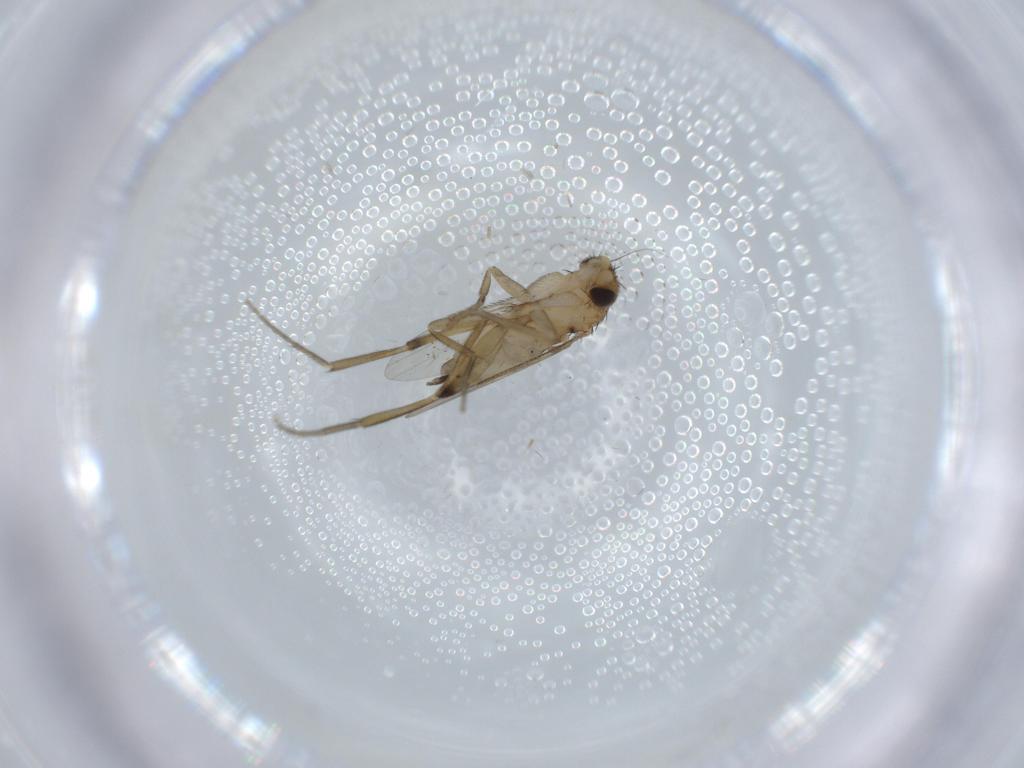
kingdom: Animalia
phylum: Arthropoda
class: Insecta
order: Diptera
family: Phoridae
